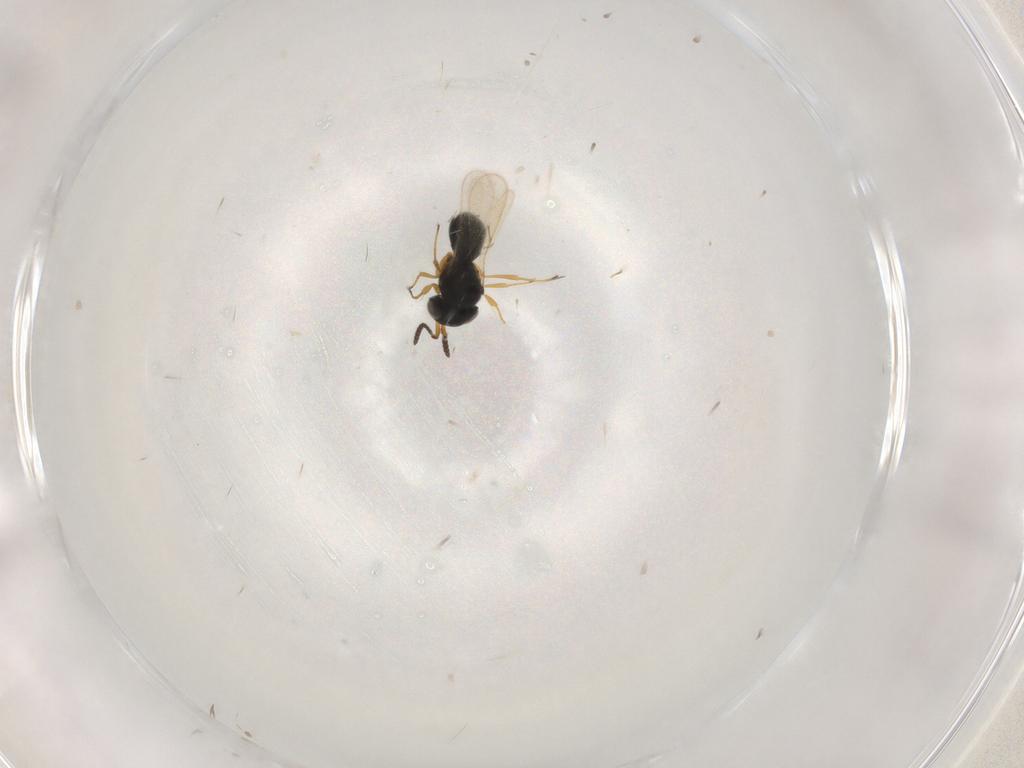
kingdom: Animalia
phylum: Arthropoda
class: Insecta
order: Hymenoptera
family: Scelionidae
